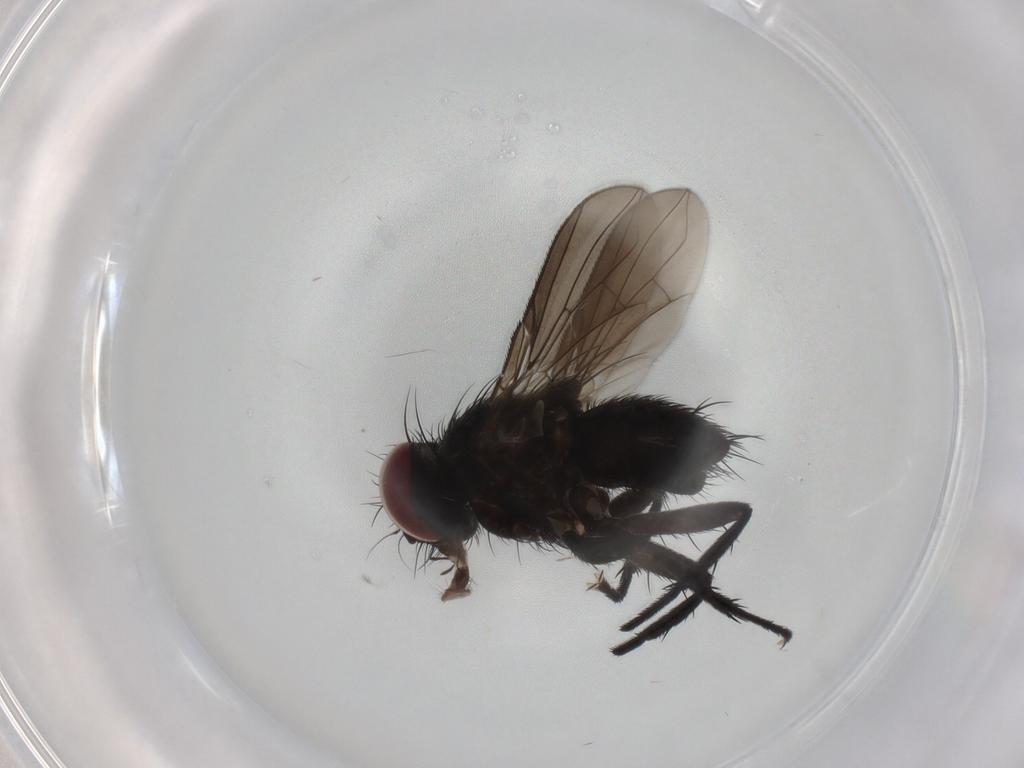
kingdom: Animalia
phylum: Arthropoda
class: Insecta
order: Diptera
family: Calliphoridae
